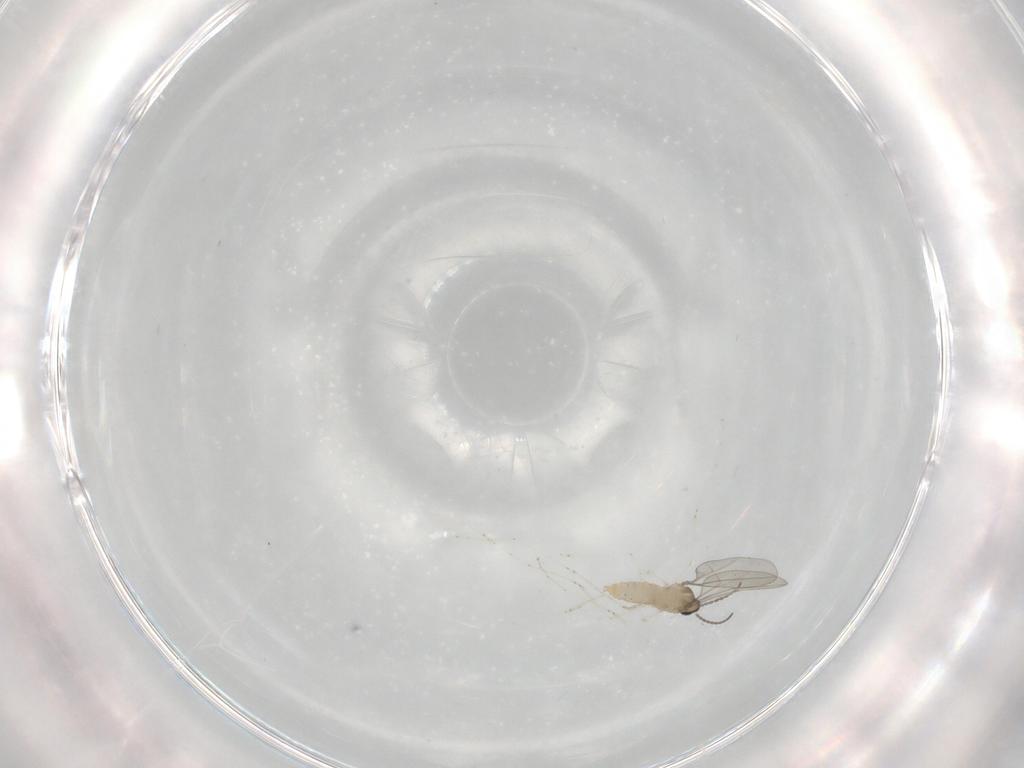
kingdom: Animalia
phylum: Arthropoda
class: Insecta
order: Diptera
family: Cecidomyiidae
